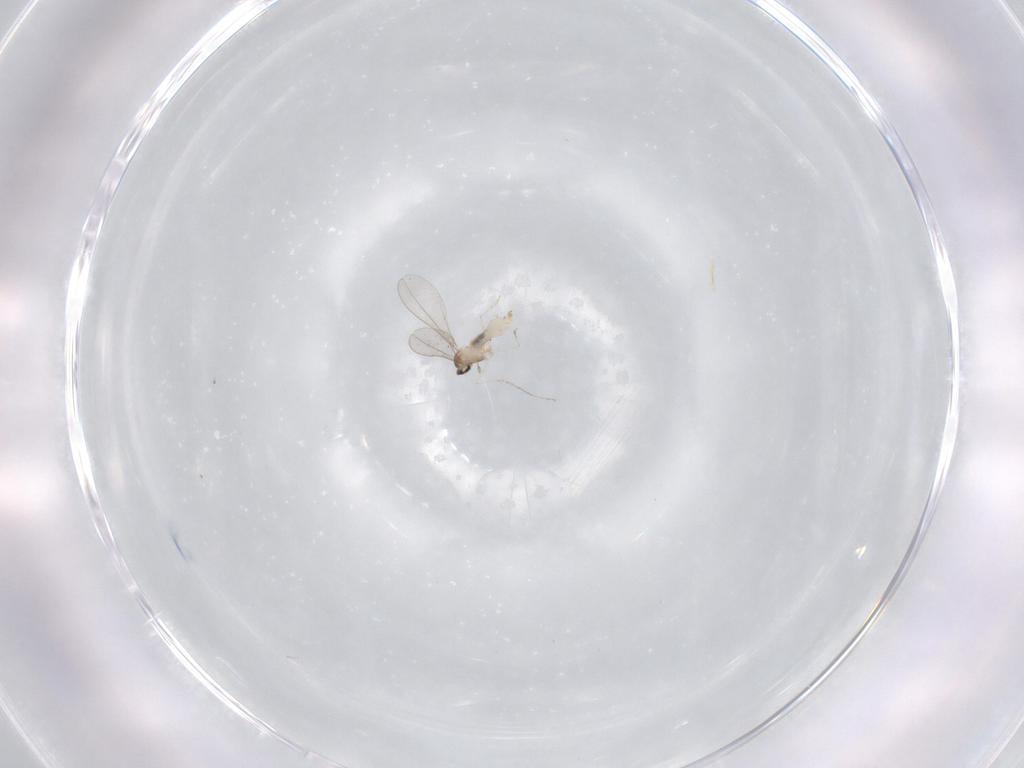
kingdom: Animalia
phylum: Arthropoda
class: Insecta
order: Diptera
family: Cecidomyiidae
